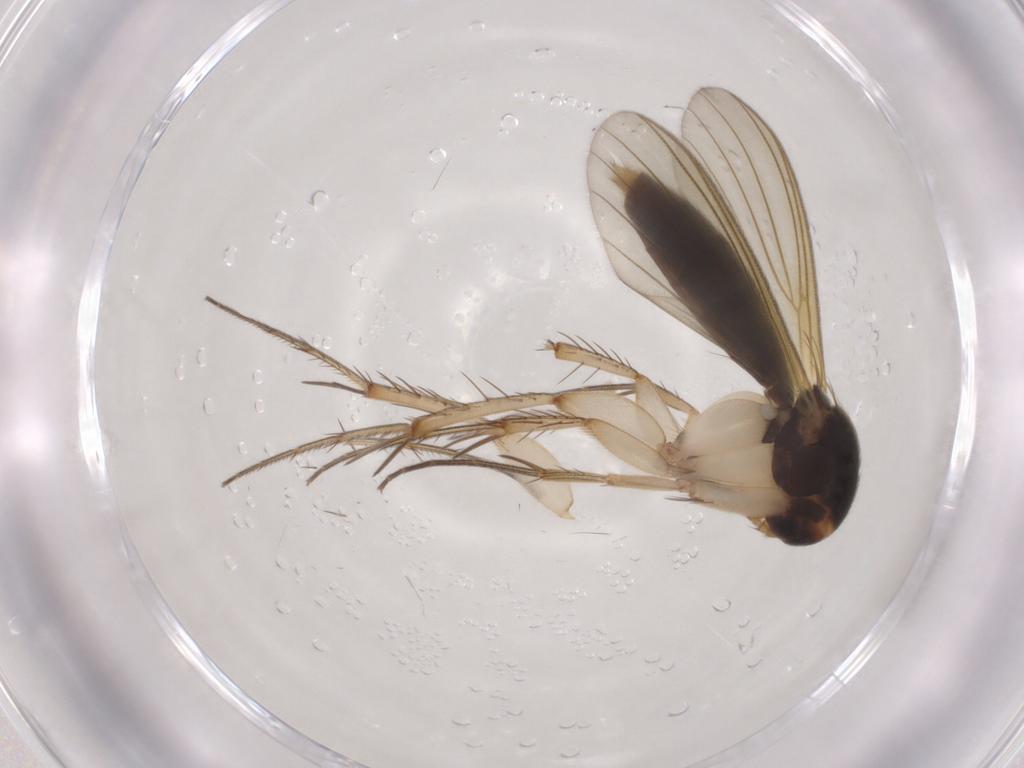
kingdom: Animalia
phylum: Arthropoda
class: Insecta
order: Diptera
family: Mycetophilidae
